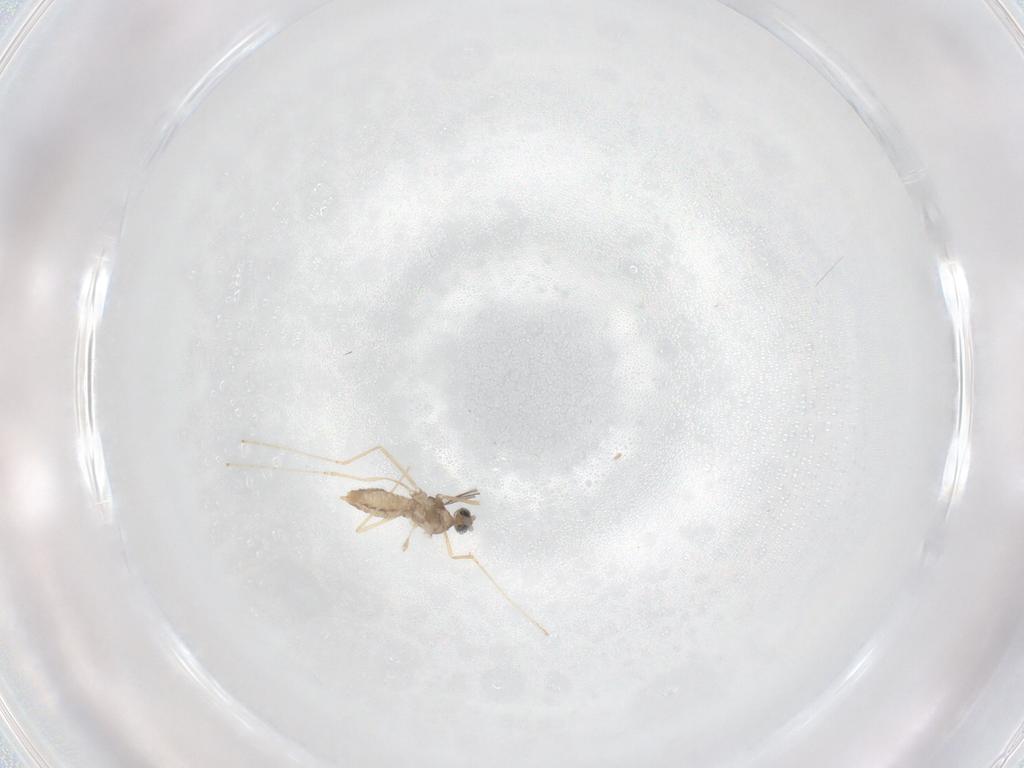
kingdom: Animalia
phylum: Arthropoda
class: Insecta
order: Diptera
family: Cecidomyiidae
